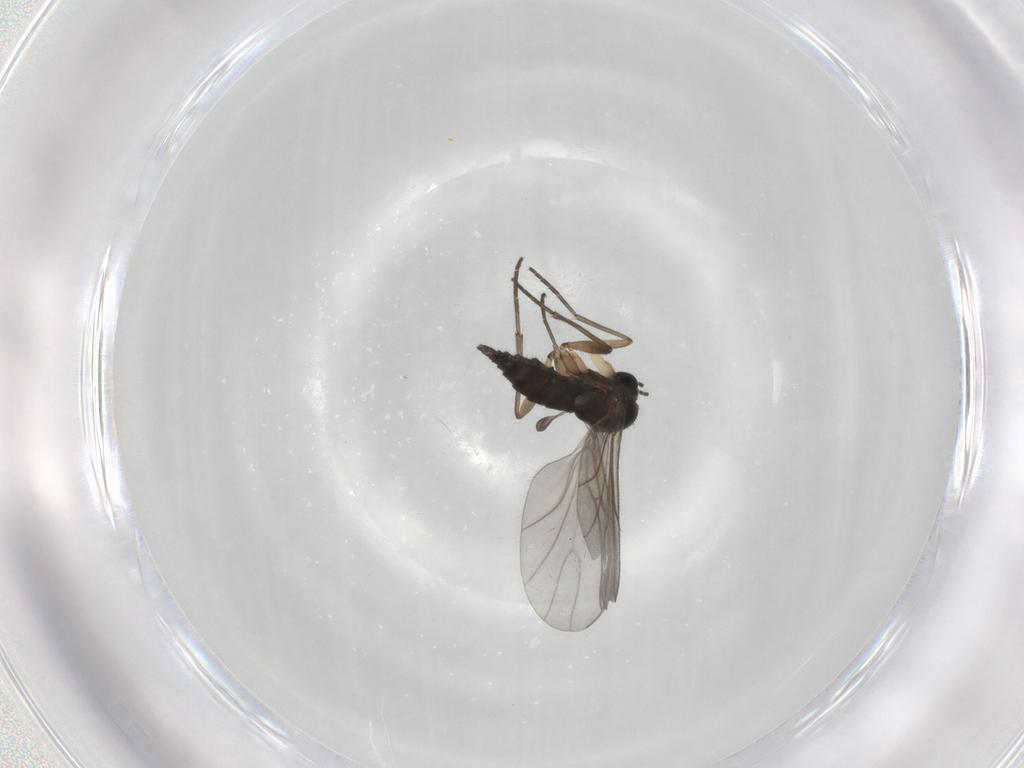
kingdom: Animalia
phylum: Arthropoda
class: Insecta
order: Diptera
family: Sciaridae
